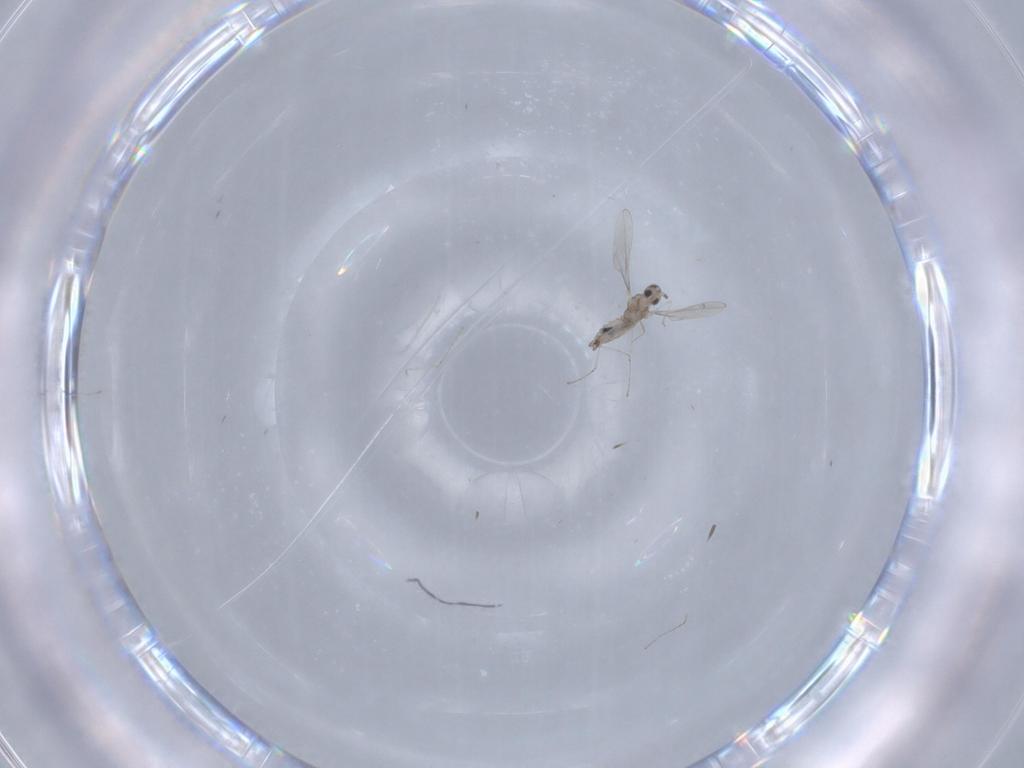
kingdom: Animalia
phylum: Arthropoda
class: Insecta
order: Diptera
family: Cecidomyiidae
